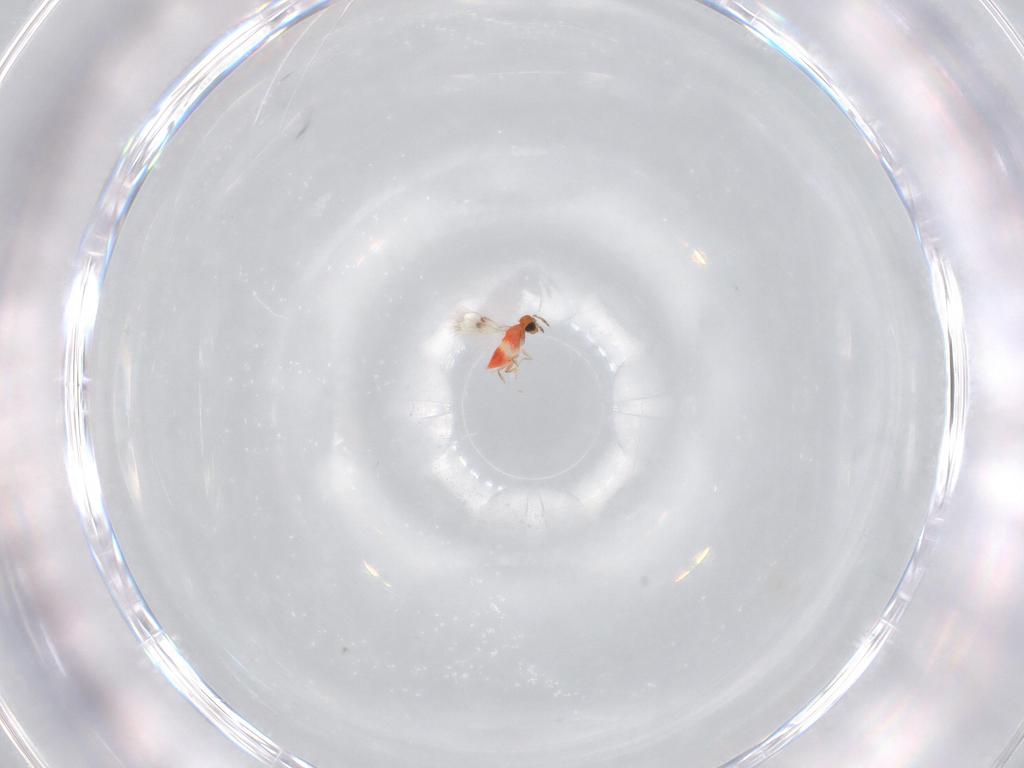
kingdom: Animalia
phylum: Arthropoda
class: Insecta
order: Hymenoptera
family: Trichogrammatidae
